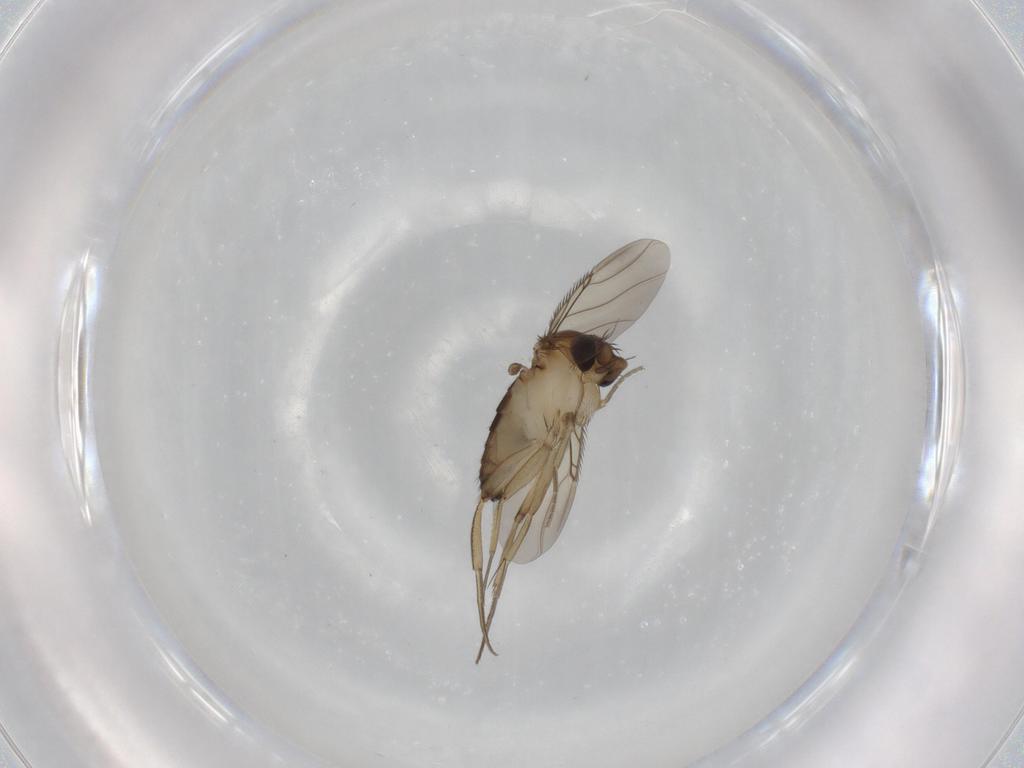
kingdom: Animalia
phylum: Arthropoda
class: Insecta
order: Diptera
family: Phoridae
